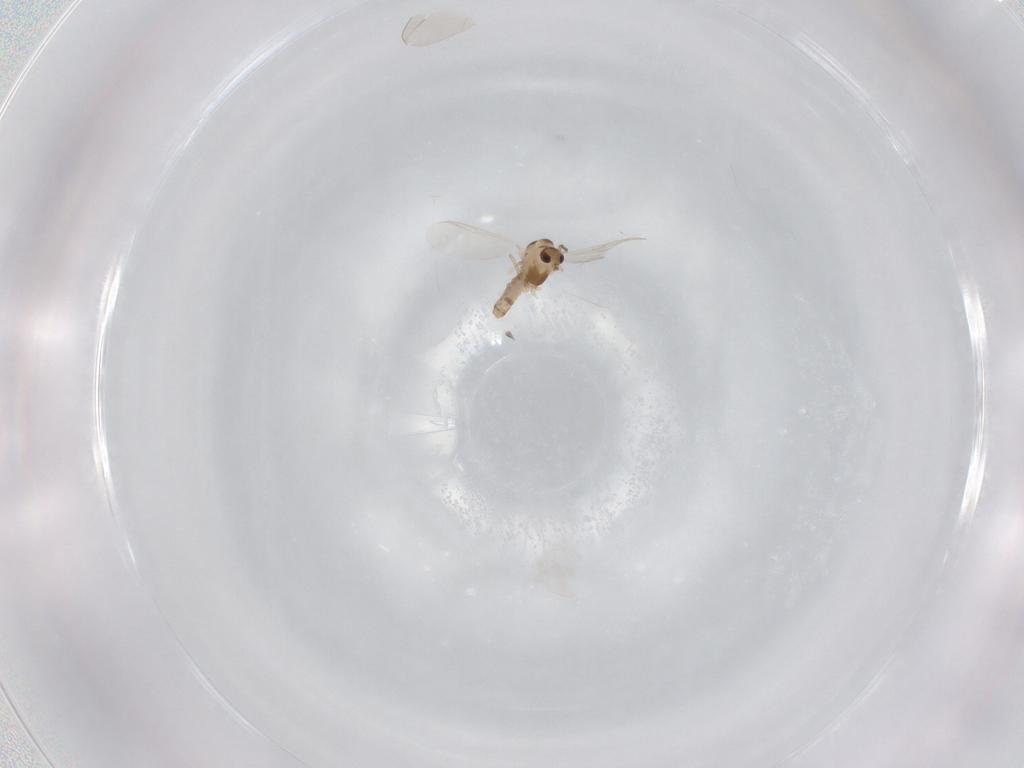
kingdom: Animalia
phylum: Arthropoda
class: Insecta
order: Diptera
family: Chironomidae
